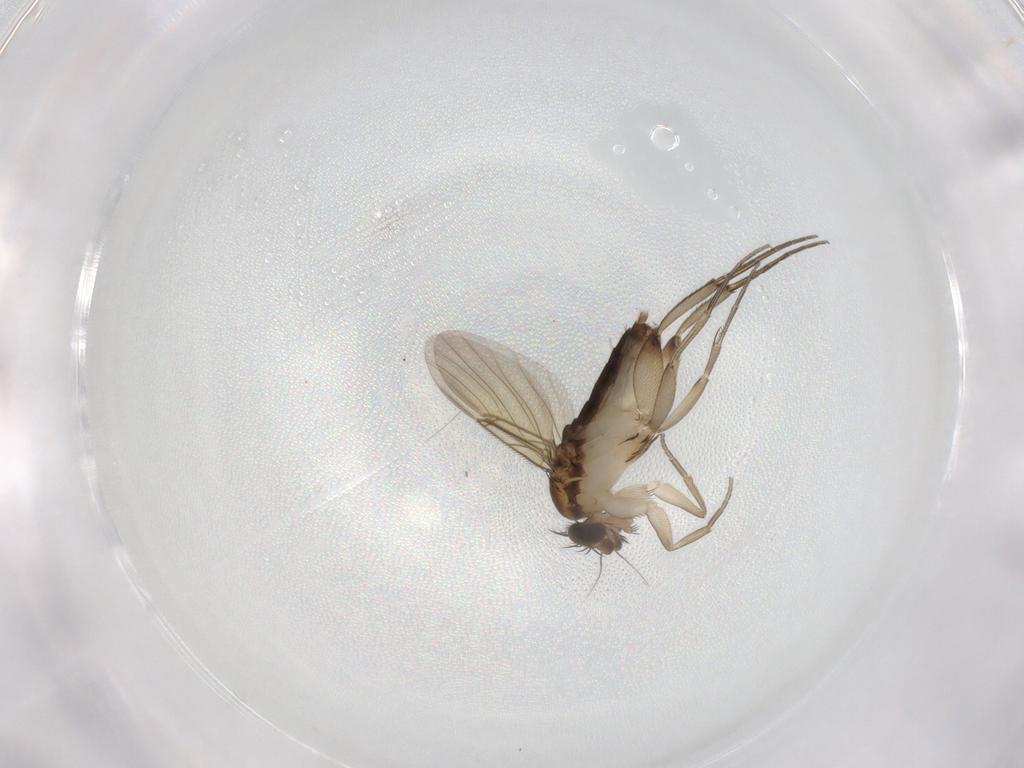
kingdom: Animalia
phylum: Arthropoda
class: Insecta
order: Diptera
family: Phoridae
